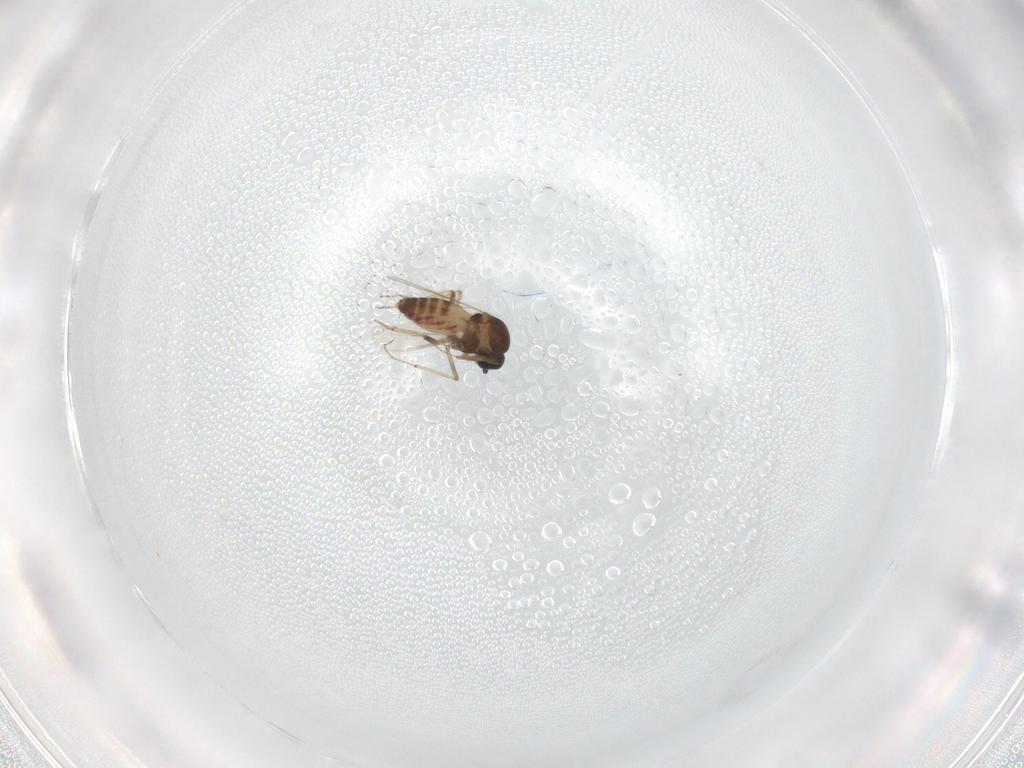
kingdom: Animalia
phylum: Arthropoda
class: Insecta
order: Diptera
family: Ceratopogonidae
